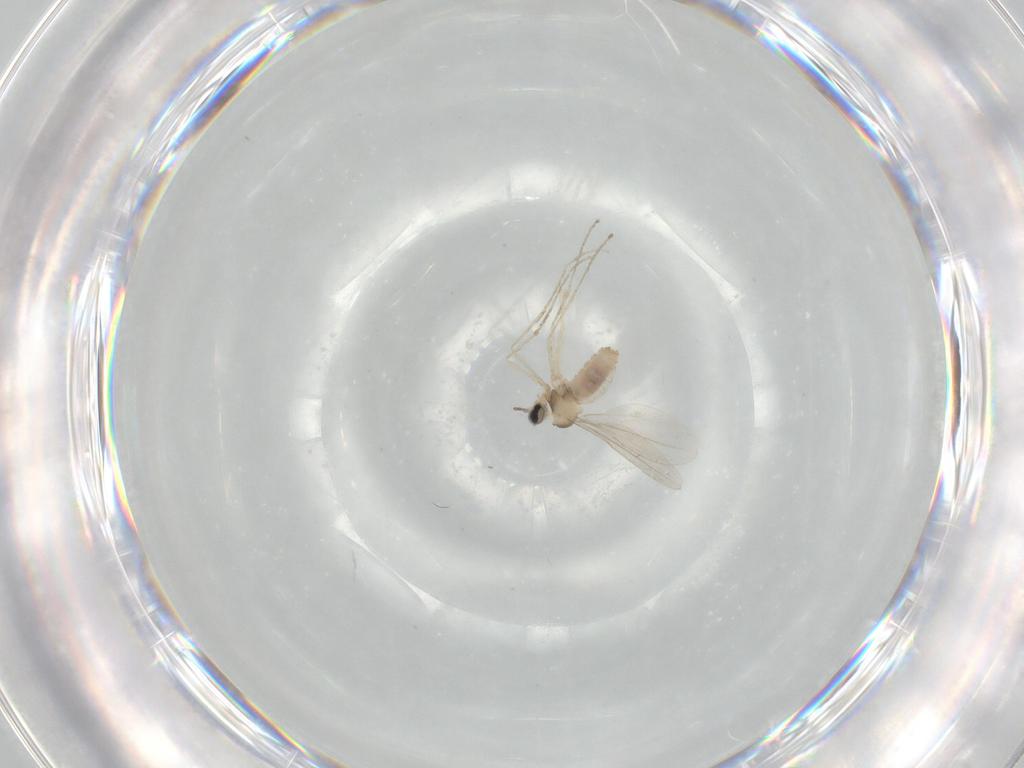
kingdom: Animalia
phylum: Arthropoda
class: Insecta
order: Diptera
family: Cecidomyiidae
